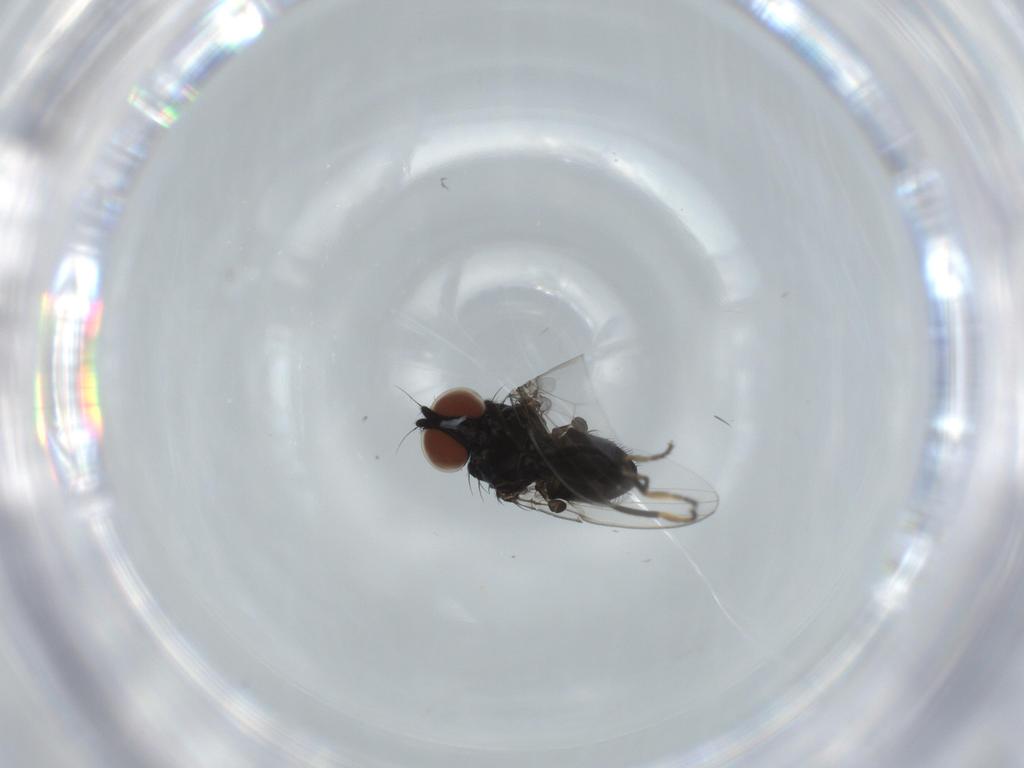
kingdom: Animalia
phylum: Arthropoda
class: Insecta
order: Diptera
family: Milichiidae
